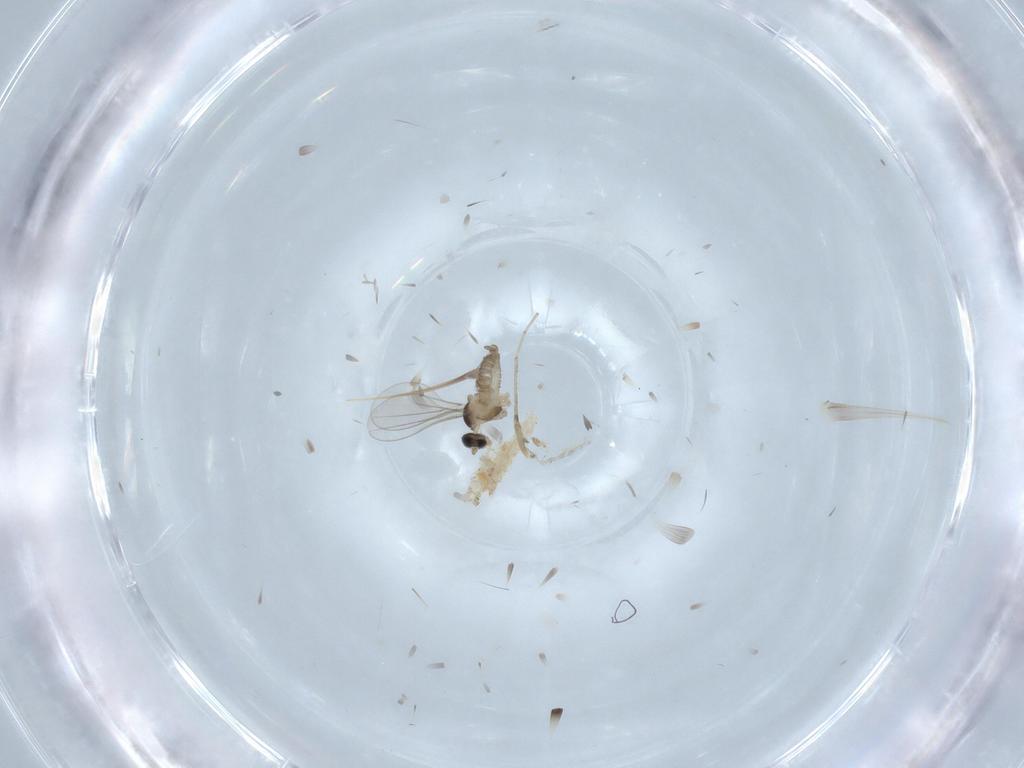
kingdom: Animalia
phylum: Arthropoda
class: Insecta
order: Diptera
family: Cecidomyiidae
